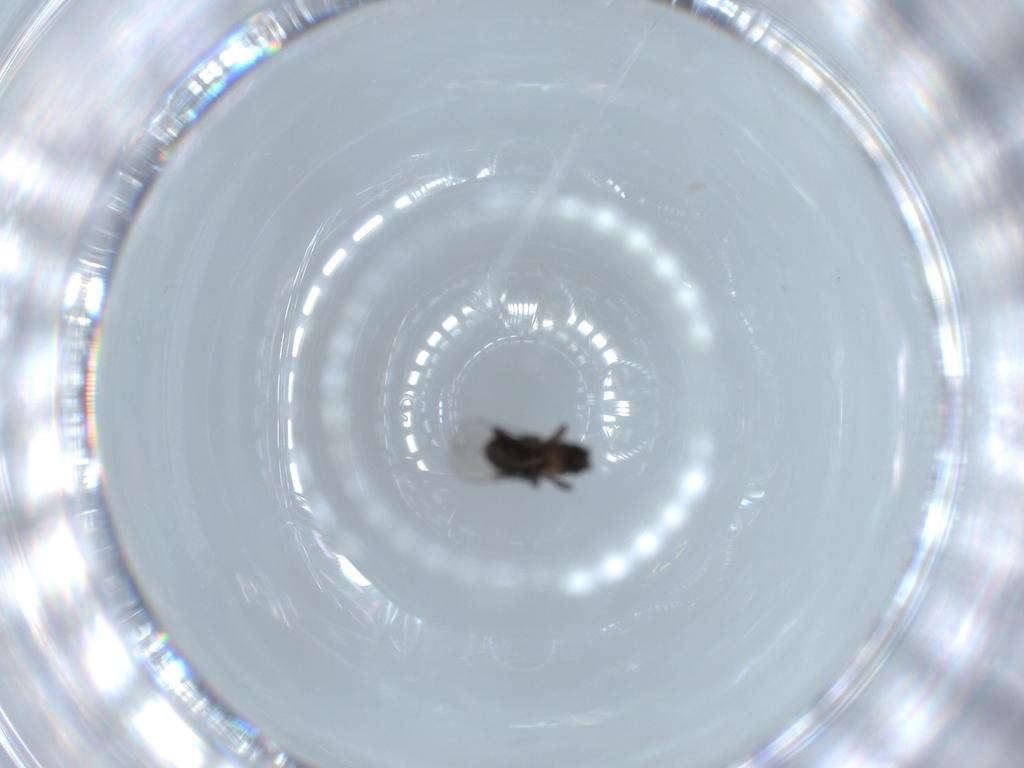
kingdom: Animalia
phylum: Arthropoda
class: Insecta
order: Diptera
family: Phoridae
